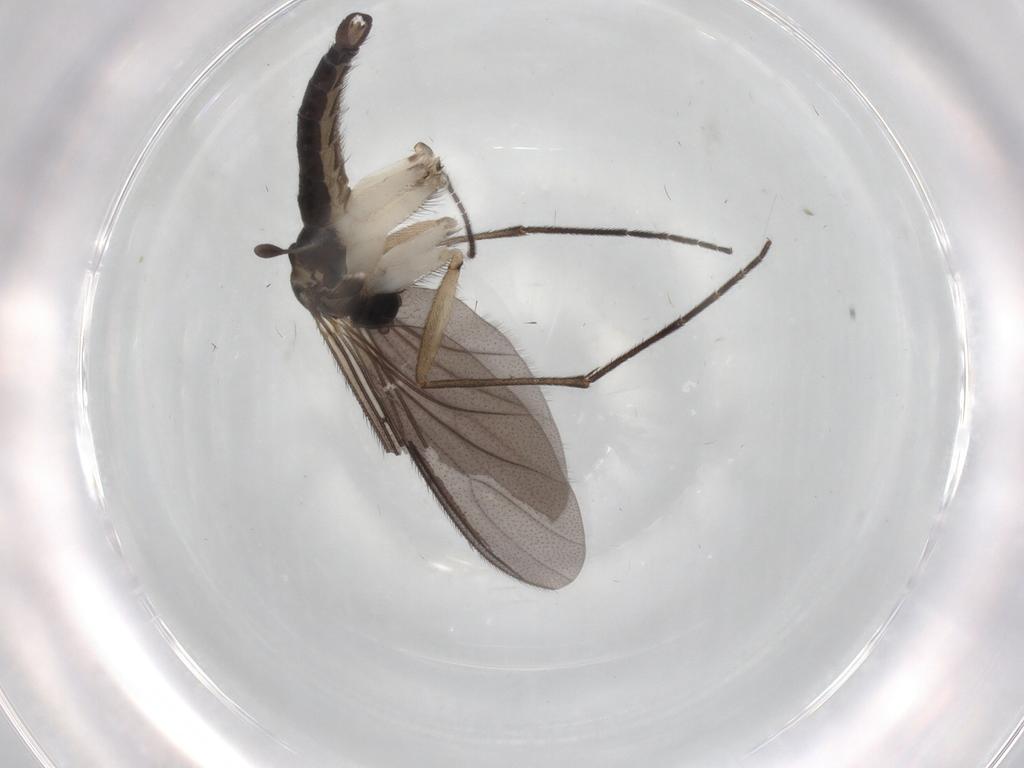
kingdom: Animalia
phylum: Arthropoda
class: Insecta
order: Diptera
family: Sciaridae
